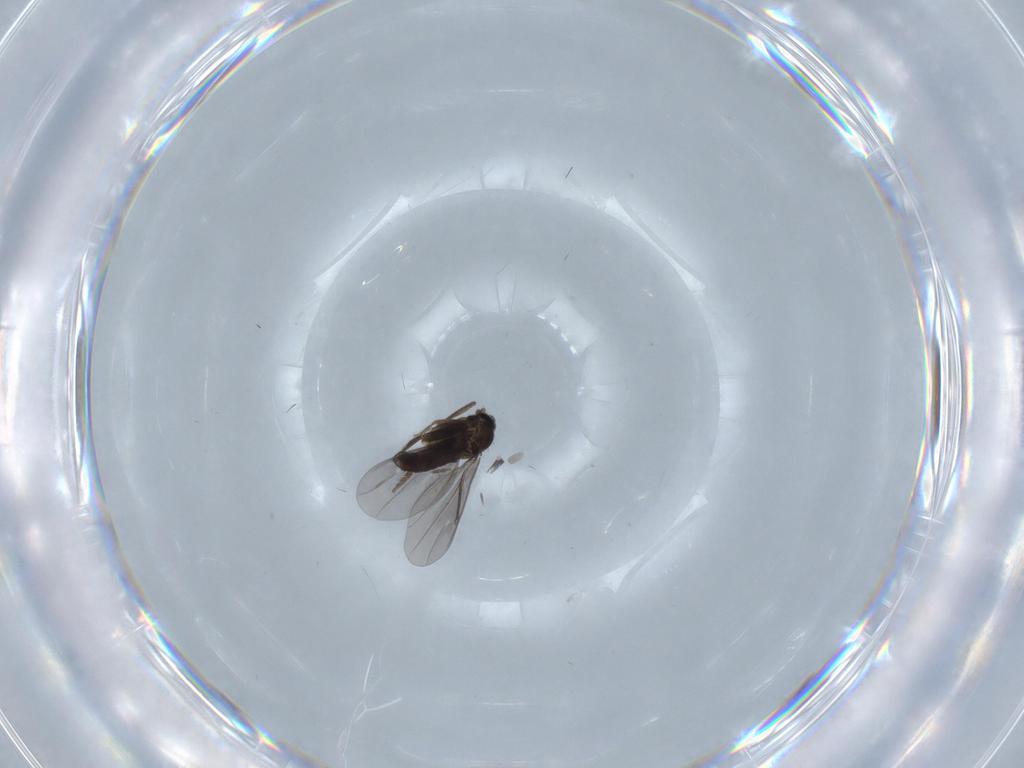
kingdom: Animalia
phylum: Arthropoda
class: Insecta
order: Diptera
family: Phoridae
